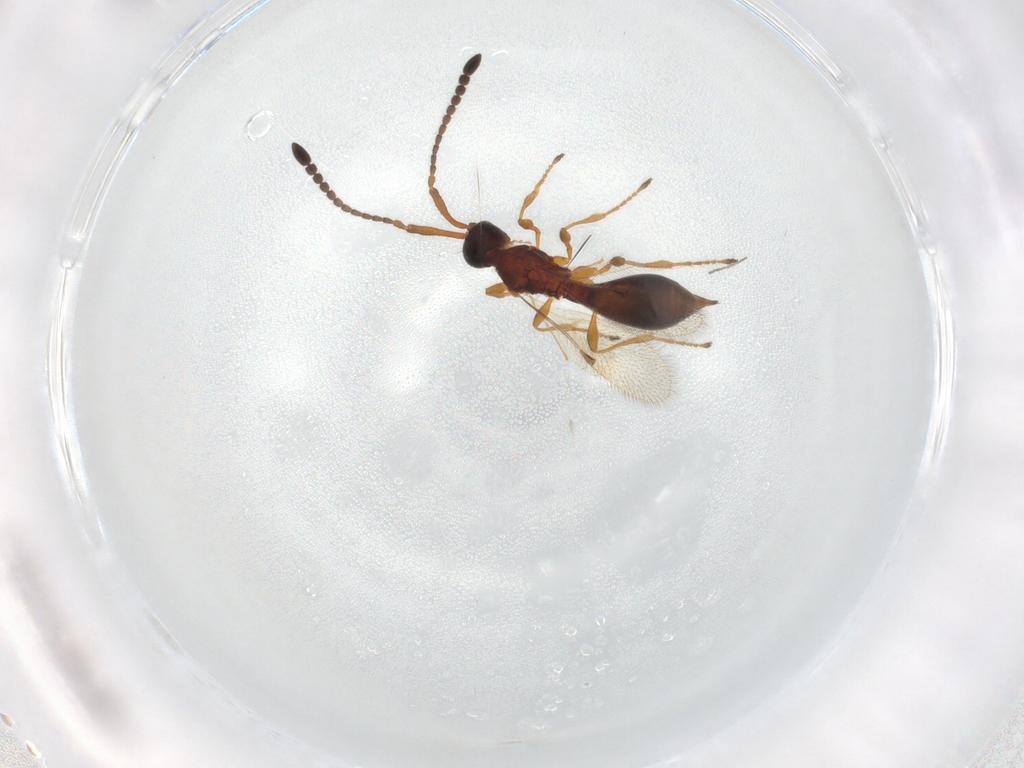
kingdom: Animalia
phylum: Arthropoda
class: Insecta
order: Hymenoptera
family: Diapriidae
